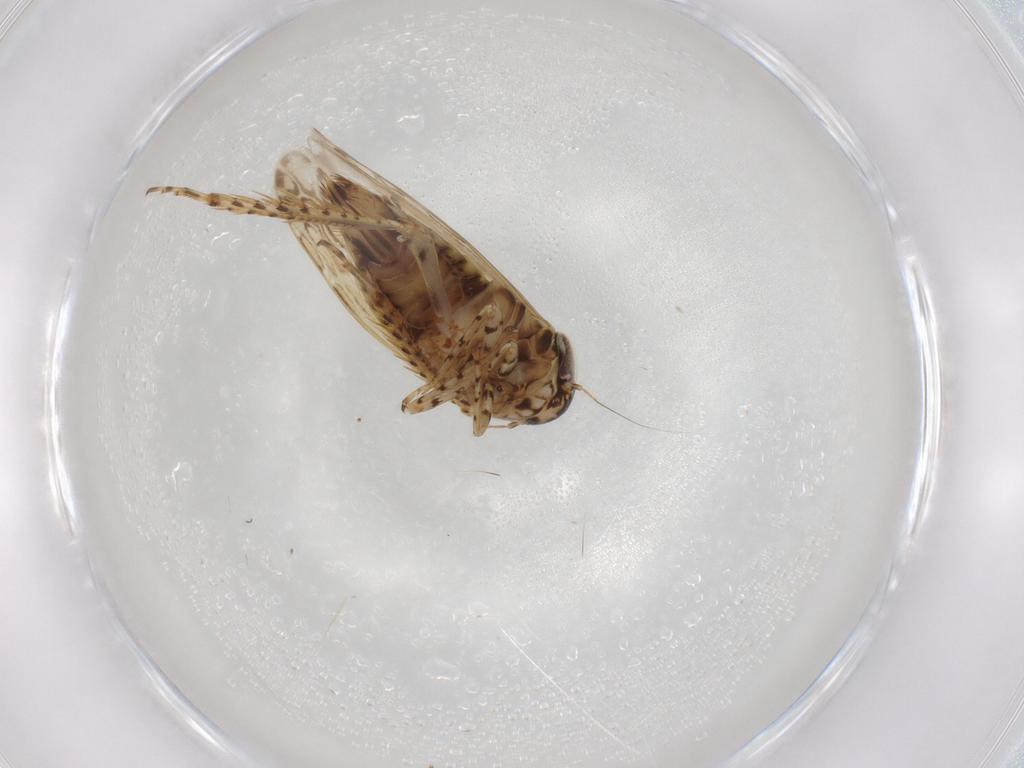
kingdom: Animalia
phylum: Arthropoda
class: Insecta
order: Hemiptera
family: Cicadellidae
